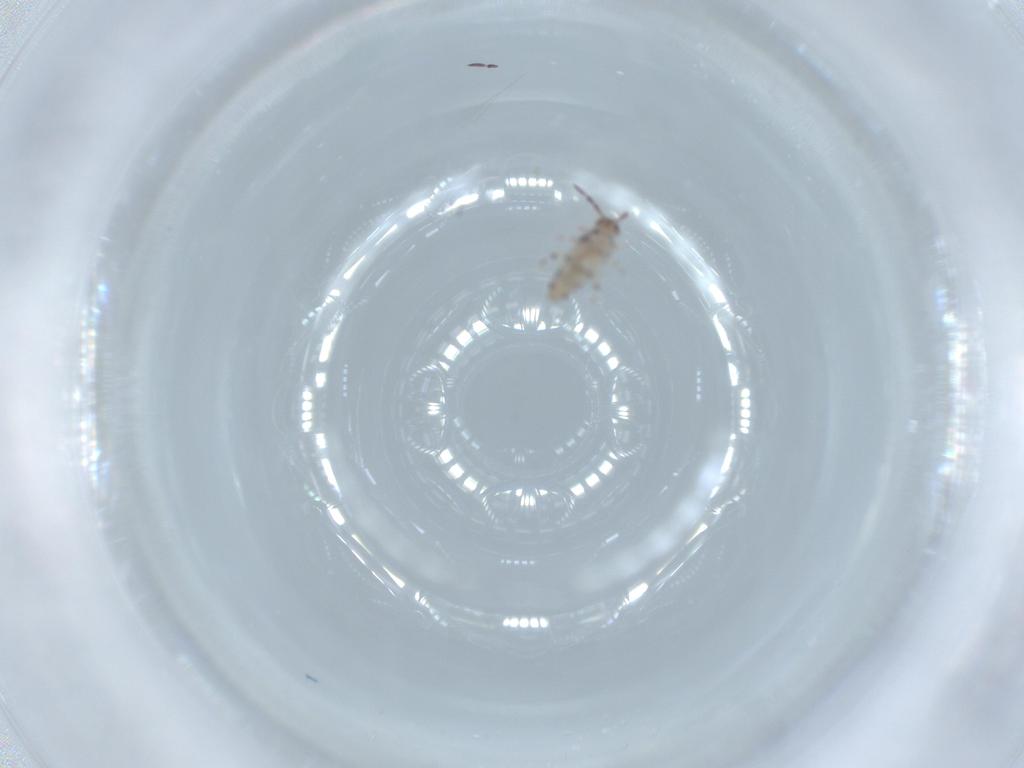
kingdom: Animalia
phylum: Arthropoda
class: Collembola
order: Entomobryomorpha
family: Entomobryidae
